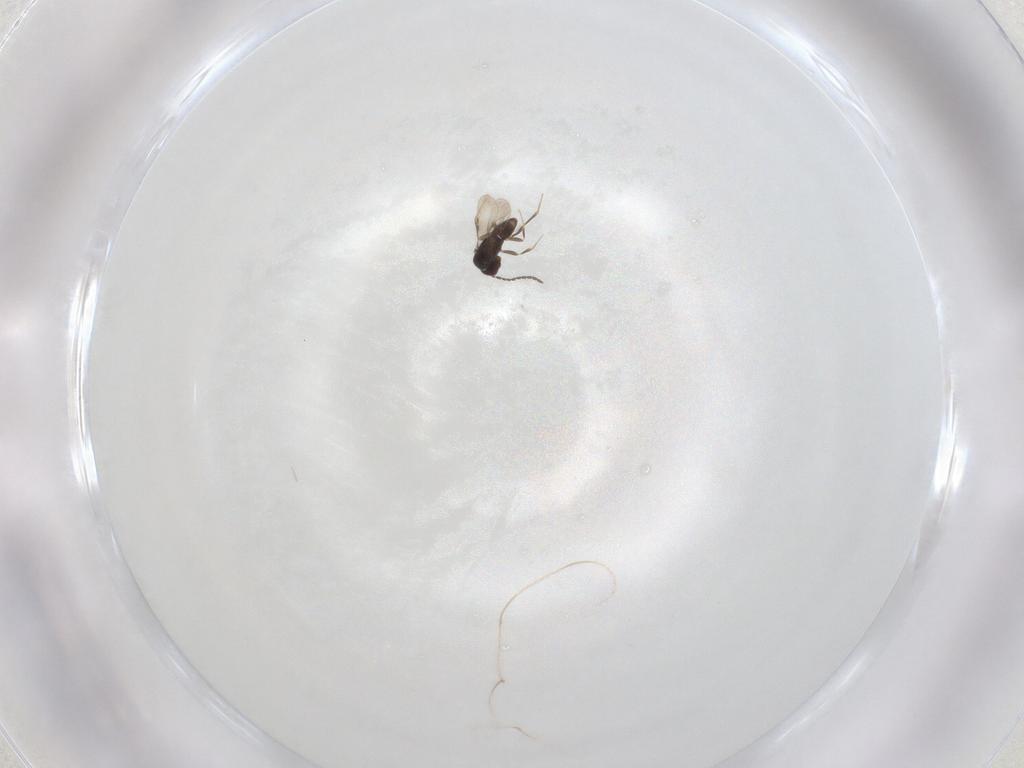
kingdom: Animalia
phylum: Arthropoda
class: Insecta
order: Hymenoptera
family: Ceraphronidae
